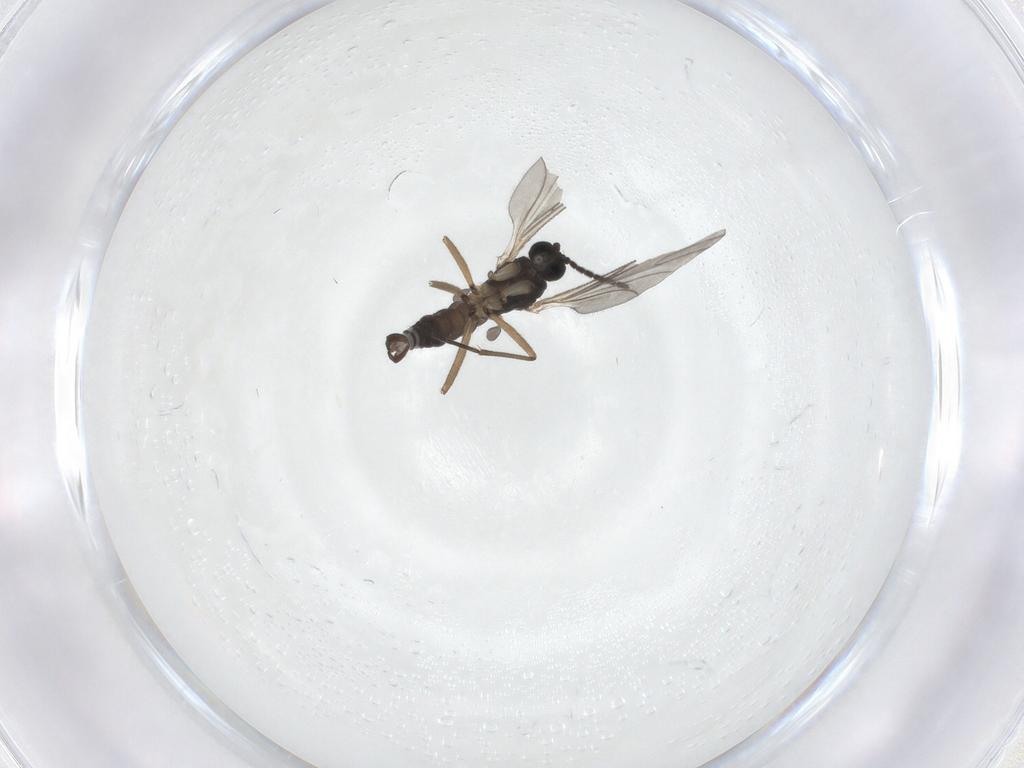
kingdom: Animalia
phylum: Arthropoda
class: Insecta
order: Diptera
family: Sciaridae
